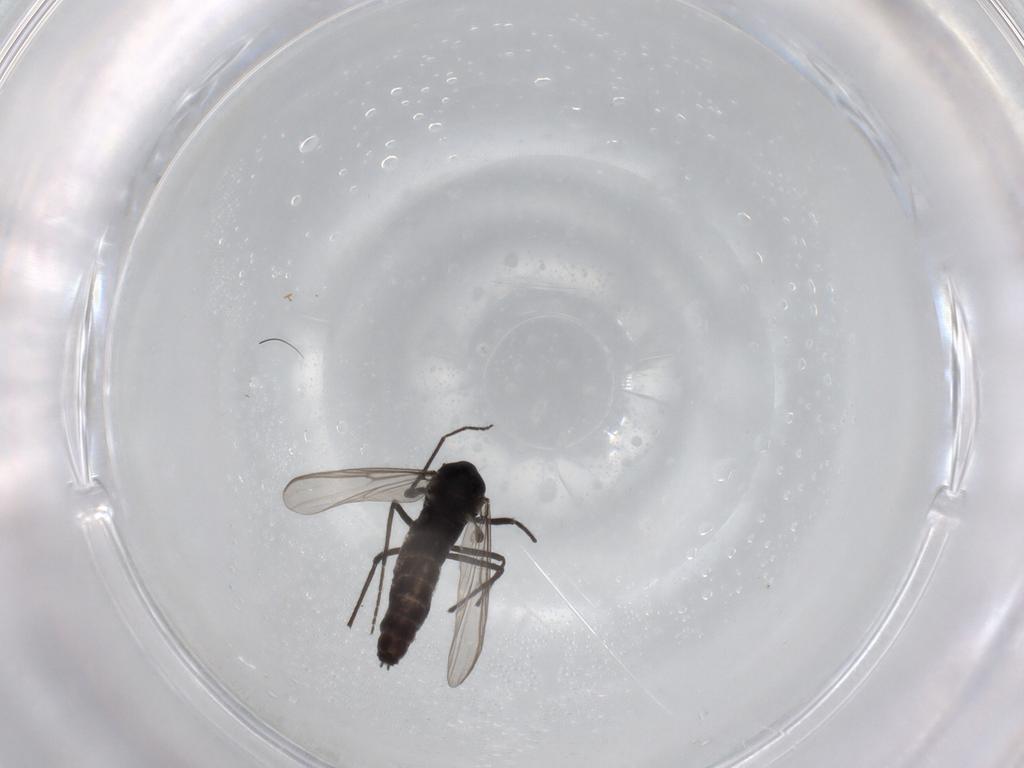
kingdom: Animalia
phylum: Arthropoda
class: Insecta
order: Diptera
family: Chironomidae
